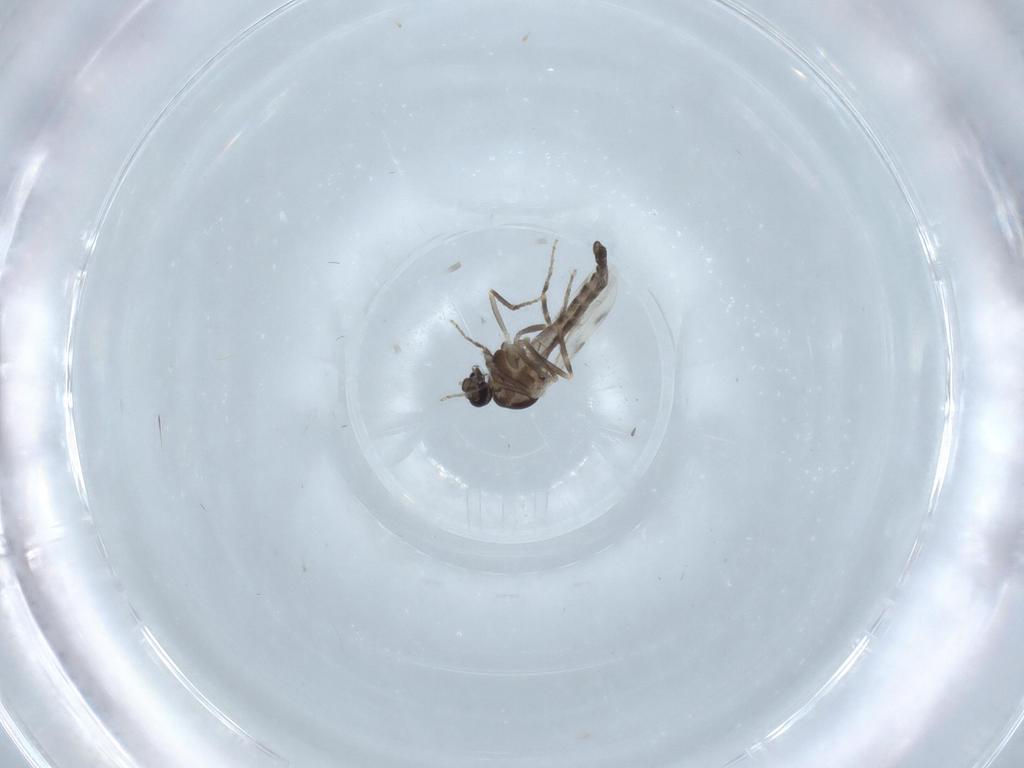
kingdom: Animalia
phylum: Arthropoda
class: Insecta
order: Diptera
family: Ceratopogonidae
